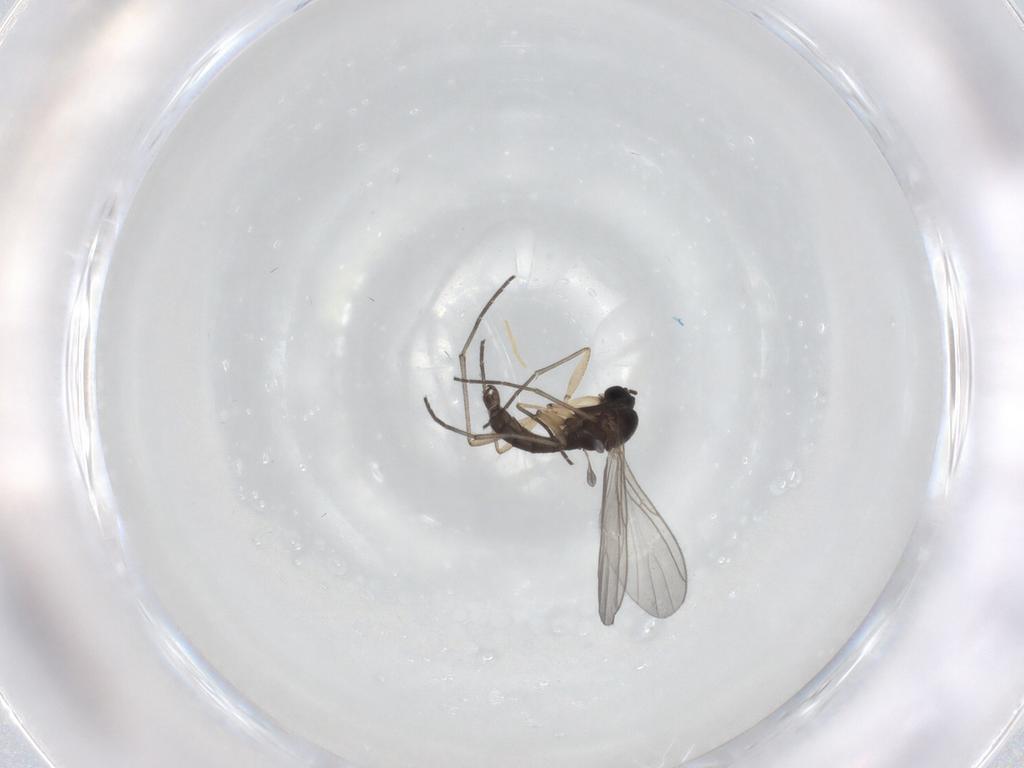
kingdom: Animalia
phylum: Arthropoda
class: Insecta
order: Diptera
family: Sciaridae
